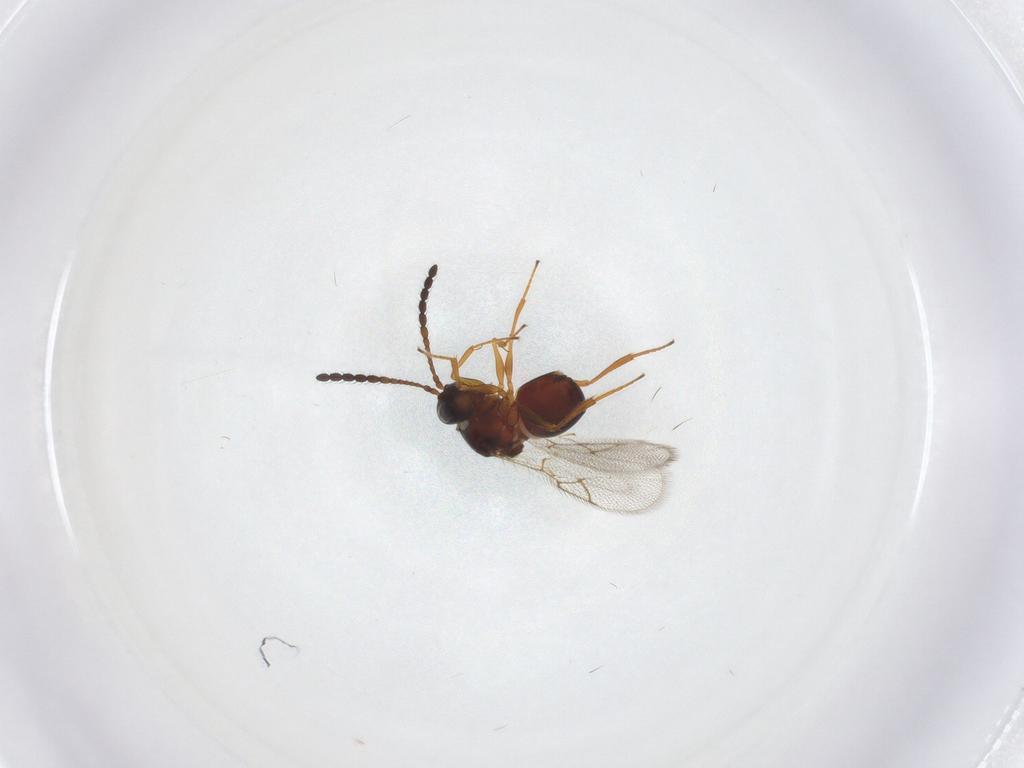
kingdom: Animalia
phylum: Arthropoda
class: Insecta
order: Hymenoptera
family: Figitidae
